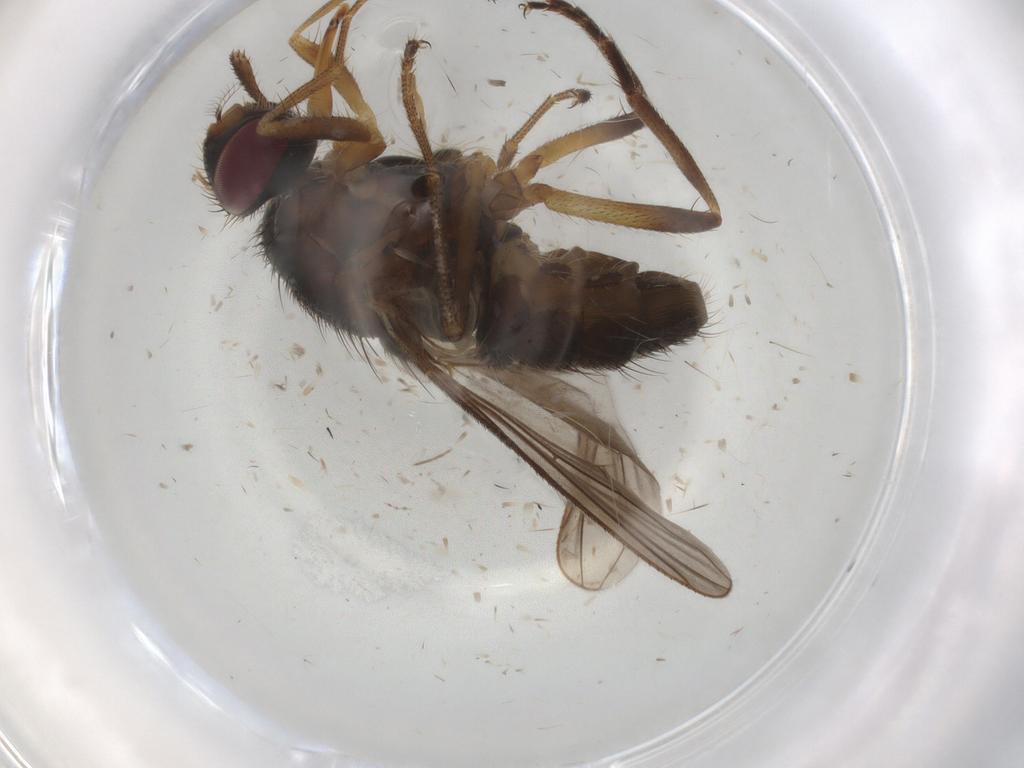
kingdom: Animalia
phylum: Arthropoda
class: Insecta
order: Diptera
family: Cecidomyiidae
